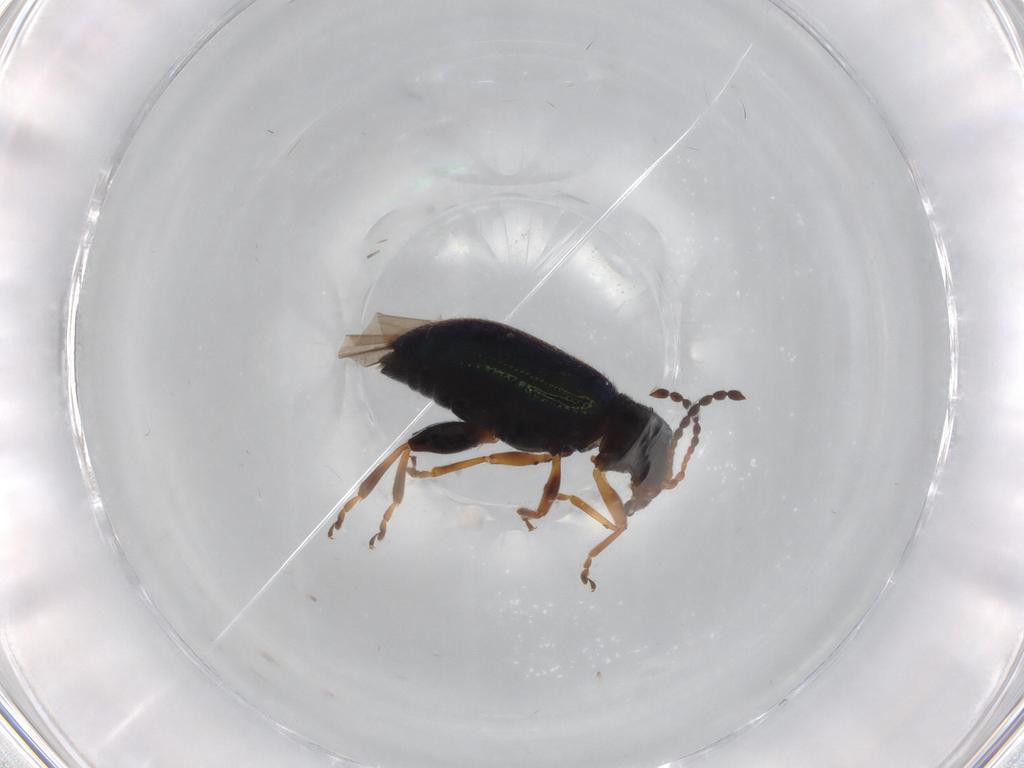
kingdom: Animalia
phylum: Arthropoda
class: Insecta
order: Coleoptera
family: Chrysomelidae
